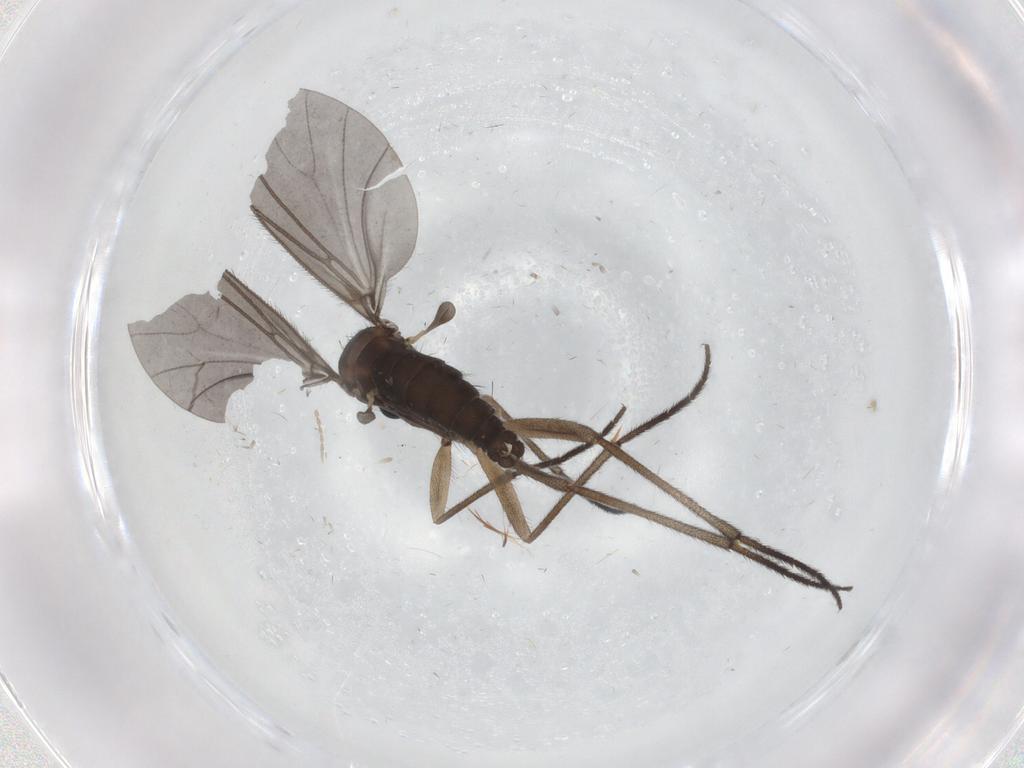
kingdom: Animalia
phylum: Arthropoda
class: Insecta
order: Diptera
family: Sciaridae
